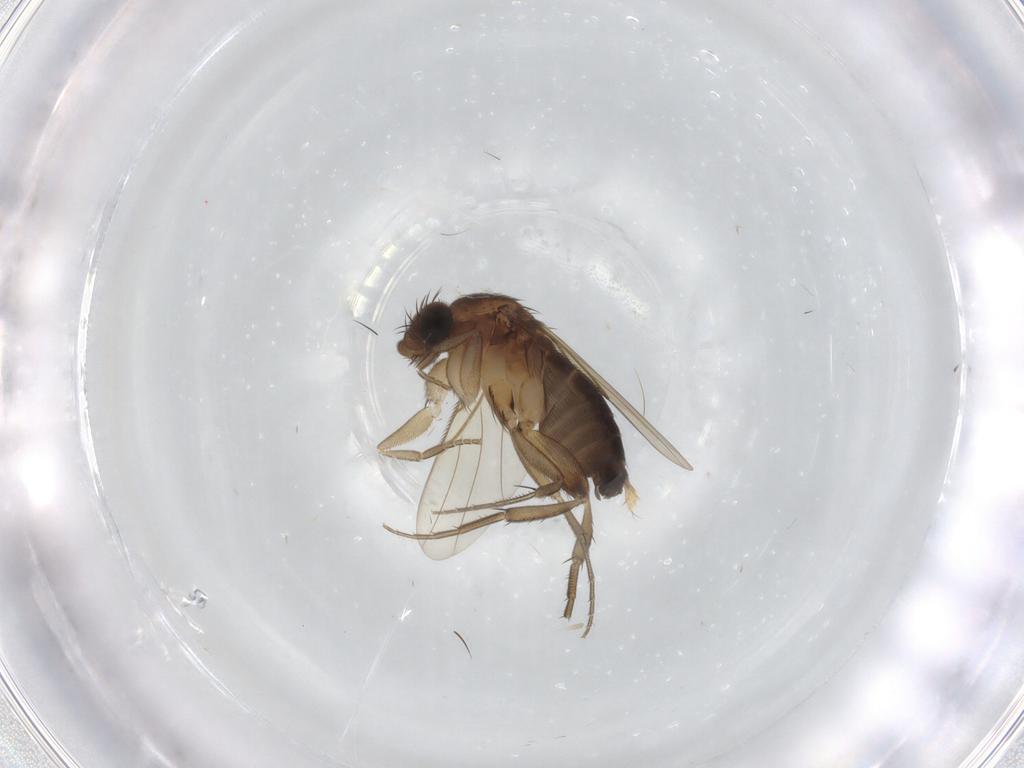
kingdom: Animalia
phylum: Arthropoda
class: Insecta
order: Diptera
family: Phoridae
